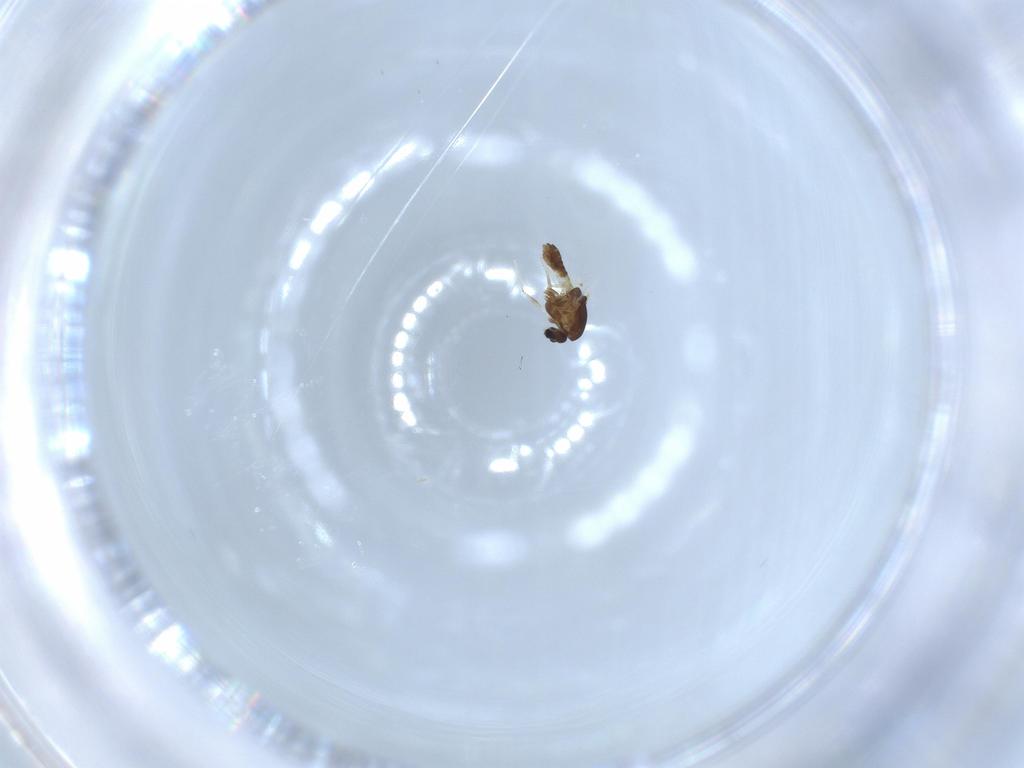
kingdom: Animalia
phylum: Arthropoda
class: Insecta
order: Diptera
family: Chironomidae
